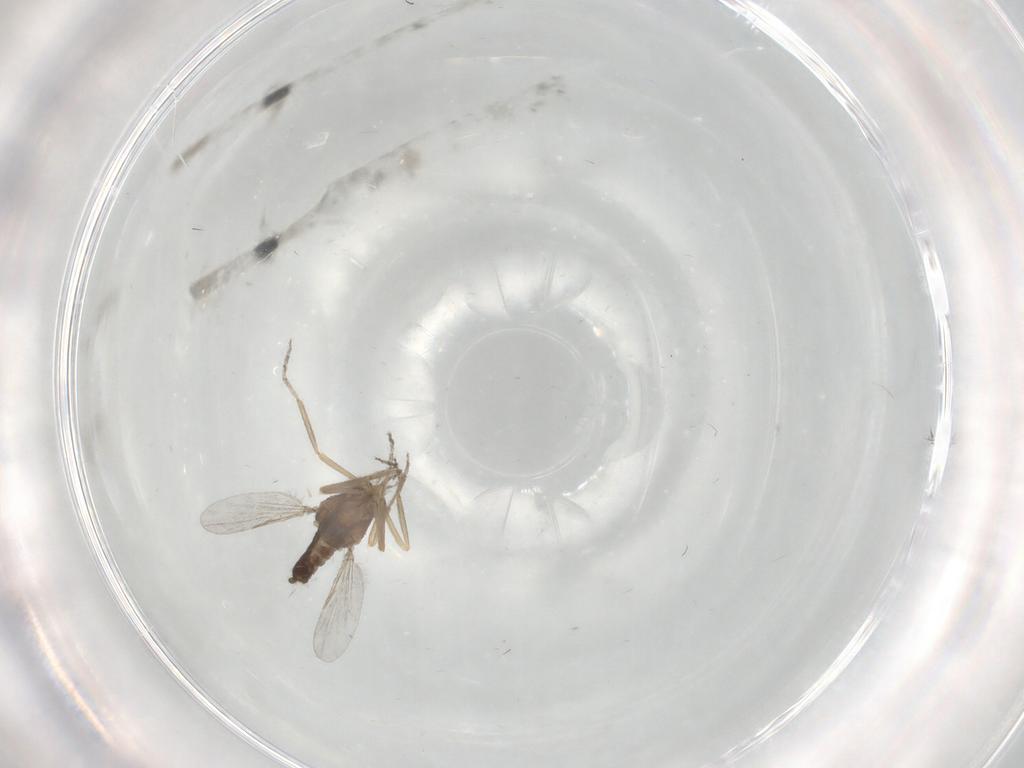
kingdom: Animalia
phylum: Arthropoda
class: Insecta
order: Diptera
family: Ceratopogonidae
